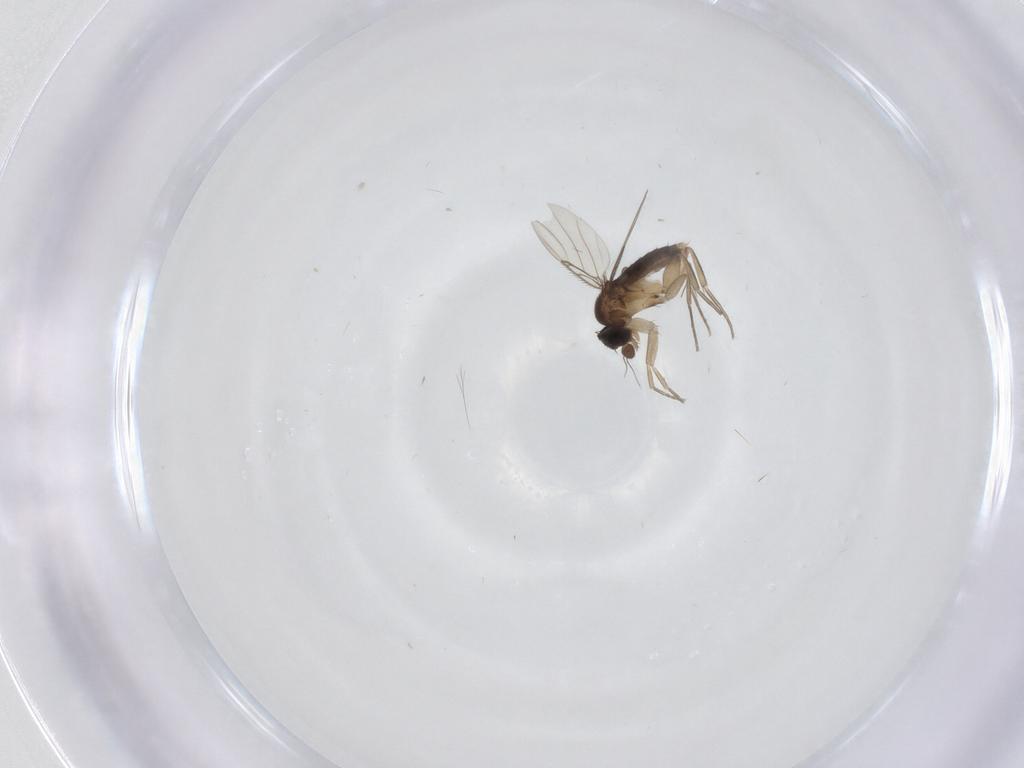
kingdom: Animalia
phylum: Arthropoda
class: Insecta
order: Diptera
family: Phoridae
